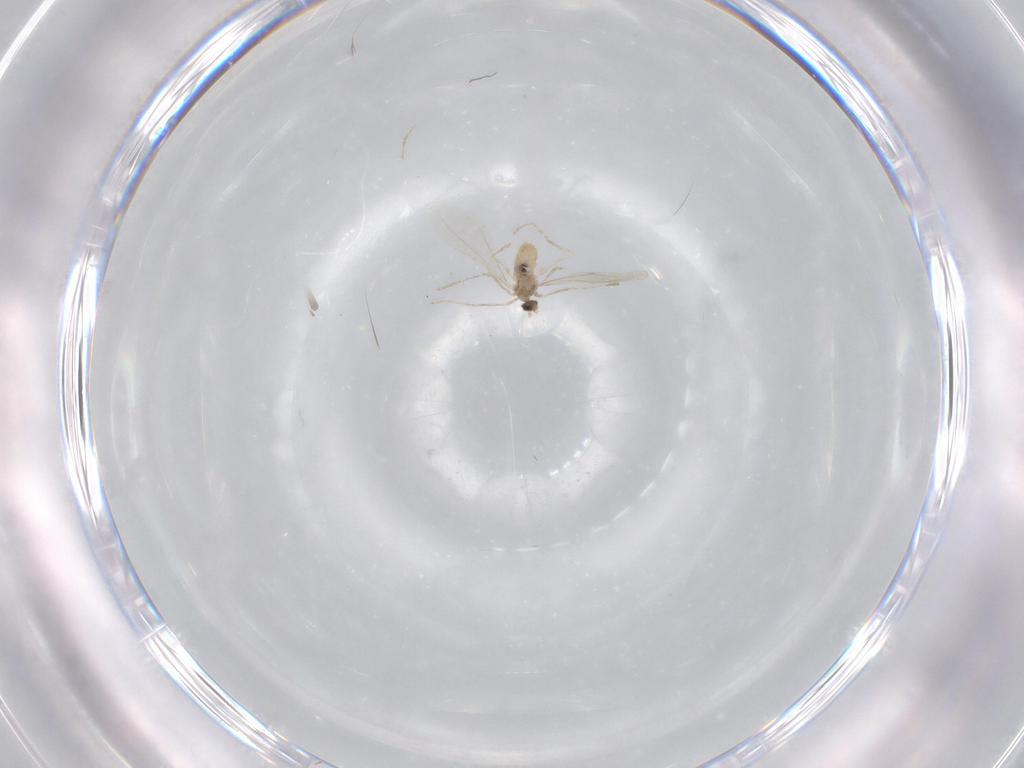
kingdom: Animalia
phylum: Arthropoda
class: Insecta
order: Diptera
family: Cecidomyiidae
